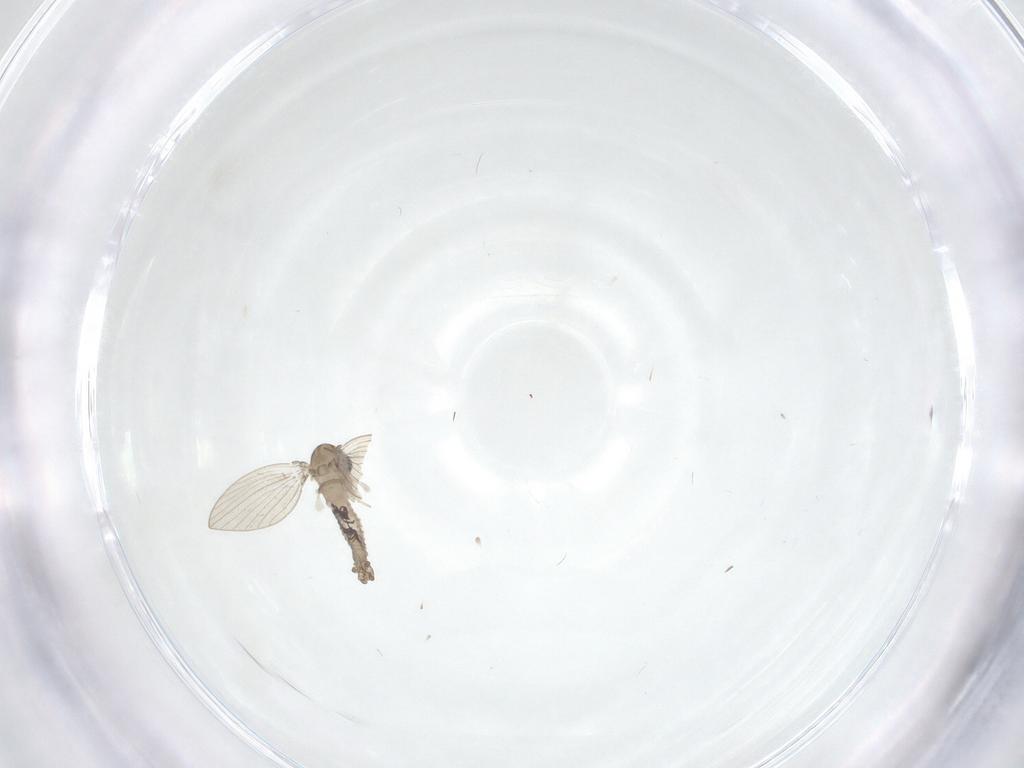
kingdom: Animalia
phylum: Arthropoda
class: Insecta
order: Diptera
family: Psychodidae
